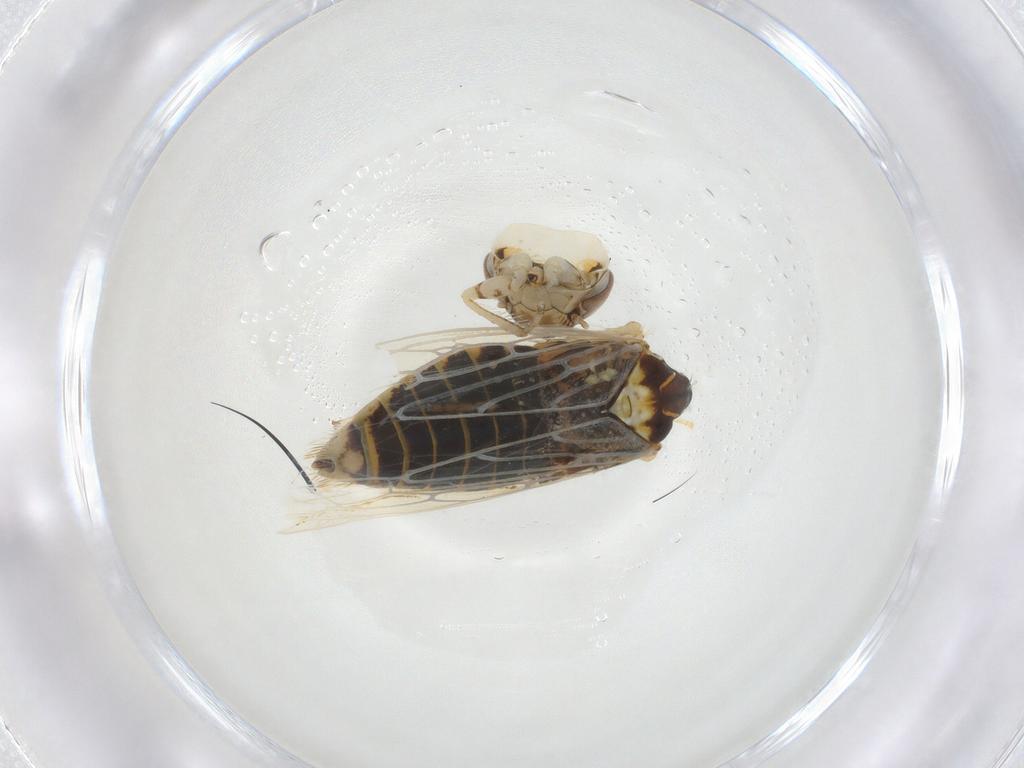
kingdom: Animalia
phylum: Arthropoda
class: Insecta
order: Hemiptera
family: Cicadellidae
